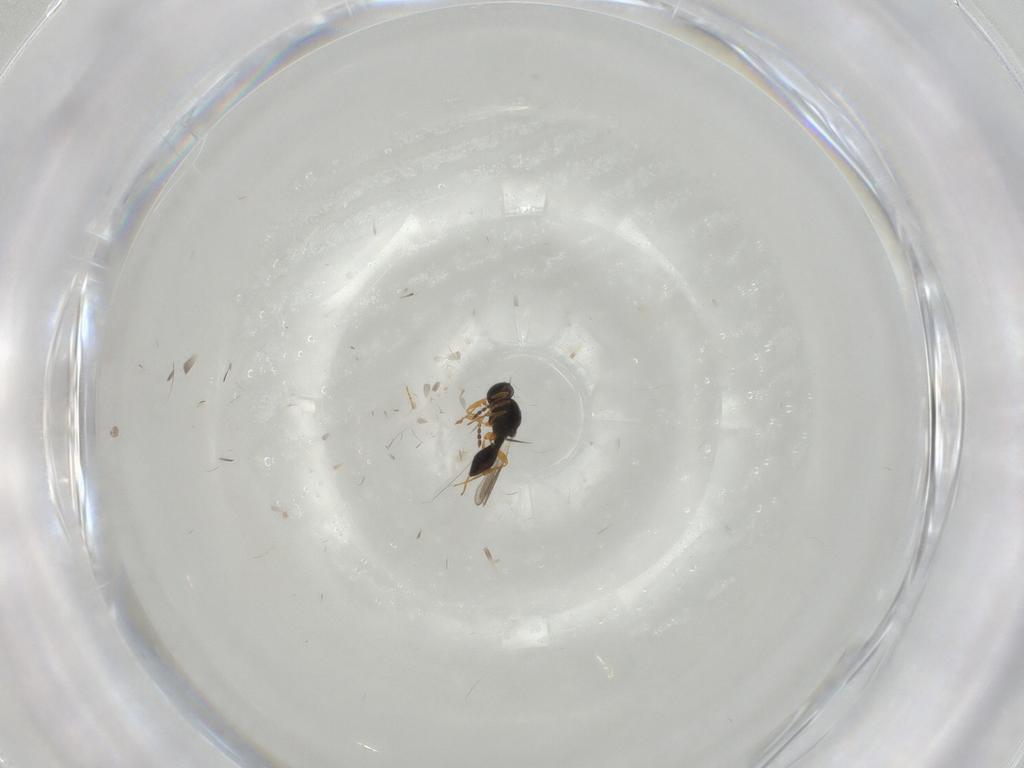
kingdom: Animalia
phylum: Arthropoda
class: Insecta
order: Hymenoptera
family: Platygastridae
